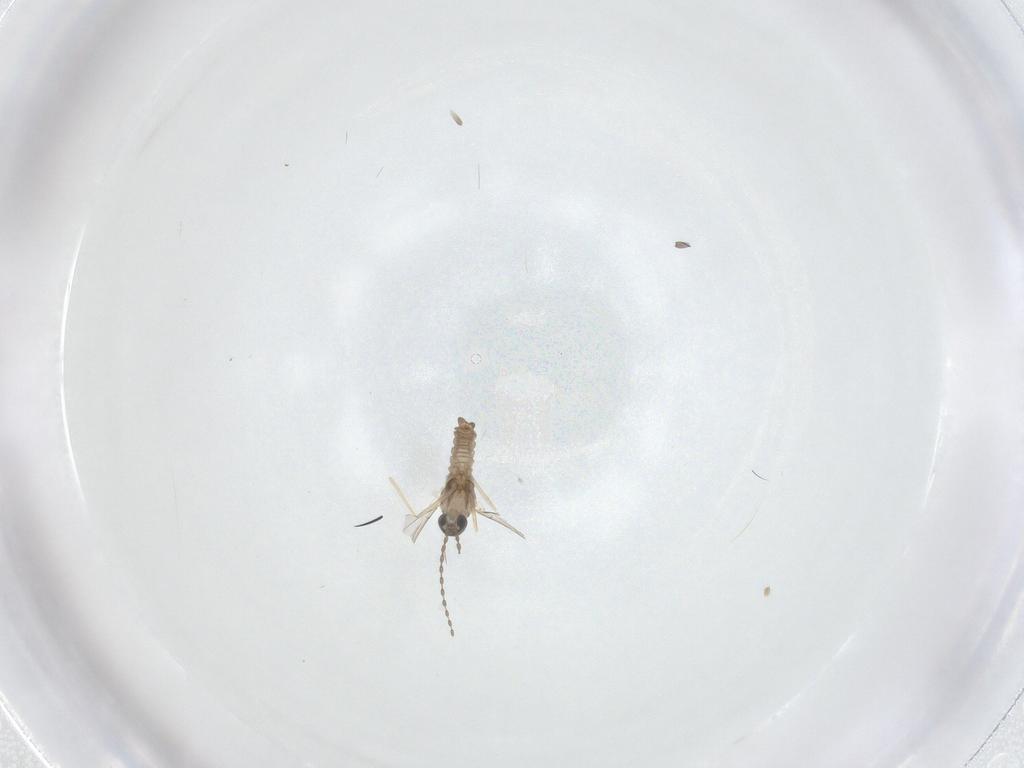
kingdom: Animalia
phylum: Arthropoda
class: Insecta
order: Diptera
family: Cecidomyiidae
